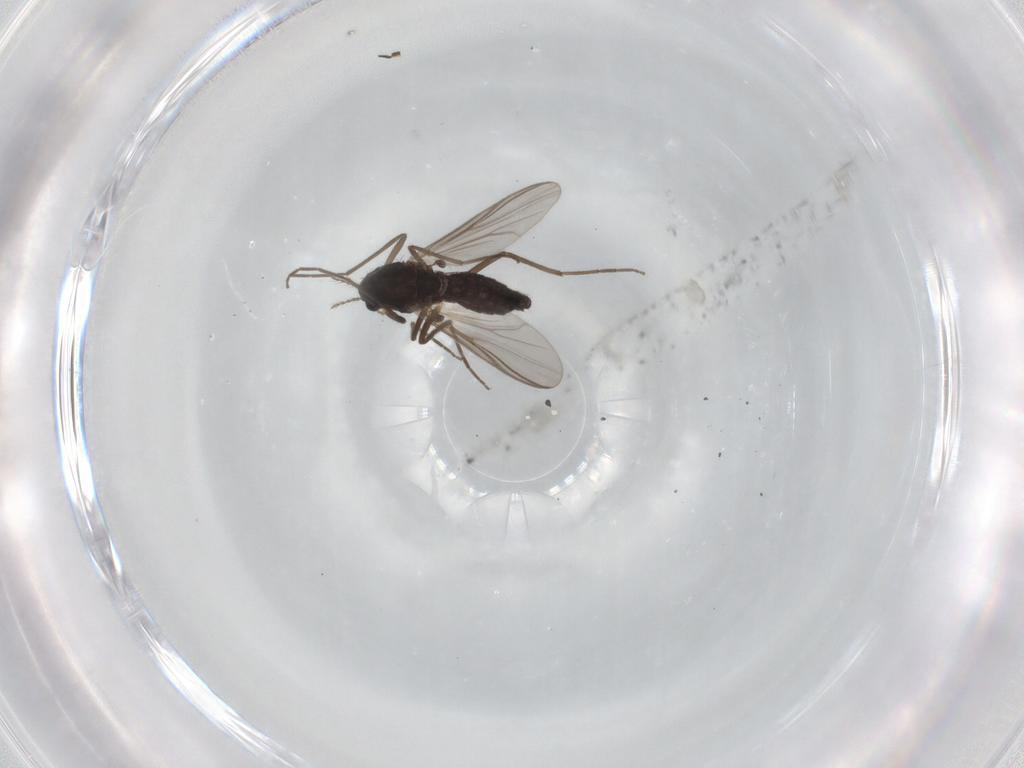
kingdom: Animalia
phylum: Arthropoda
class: Insecta
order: Diptera
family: Chironomidae
